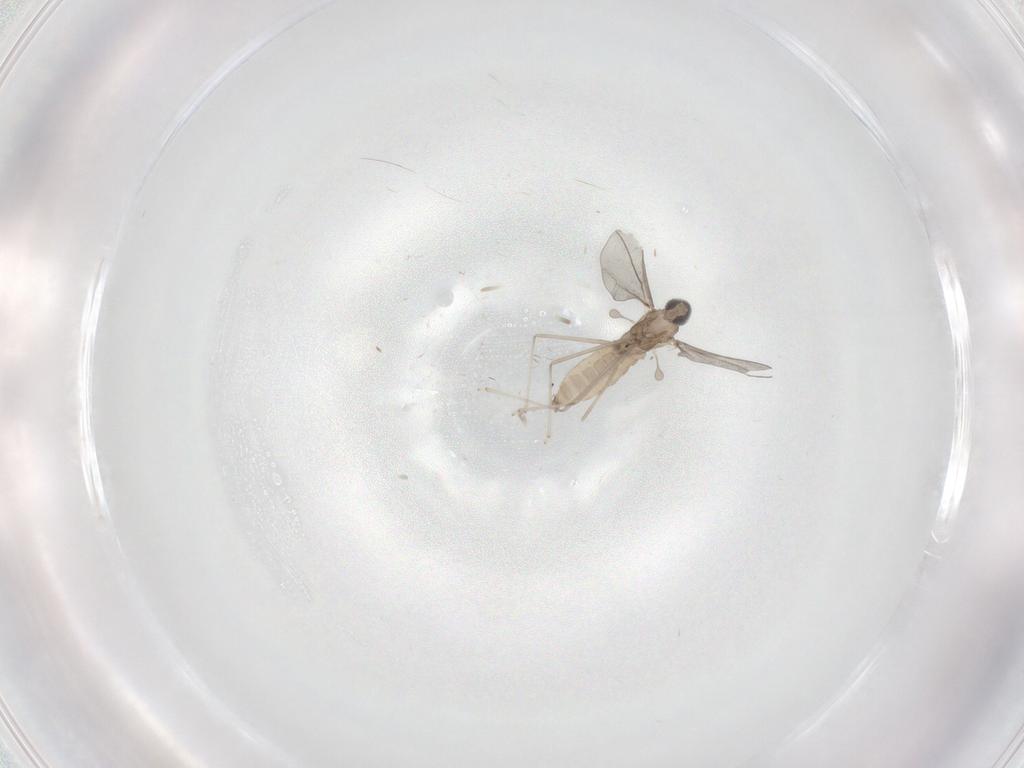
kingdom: Animalia
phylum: Arthropoda
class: Insecta
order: Diptera
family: Cecidomyiidae
